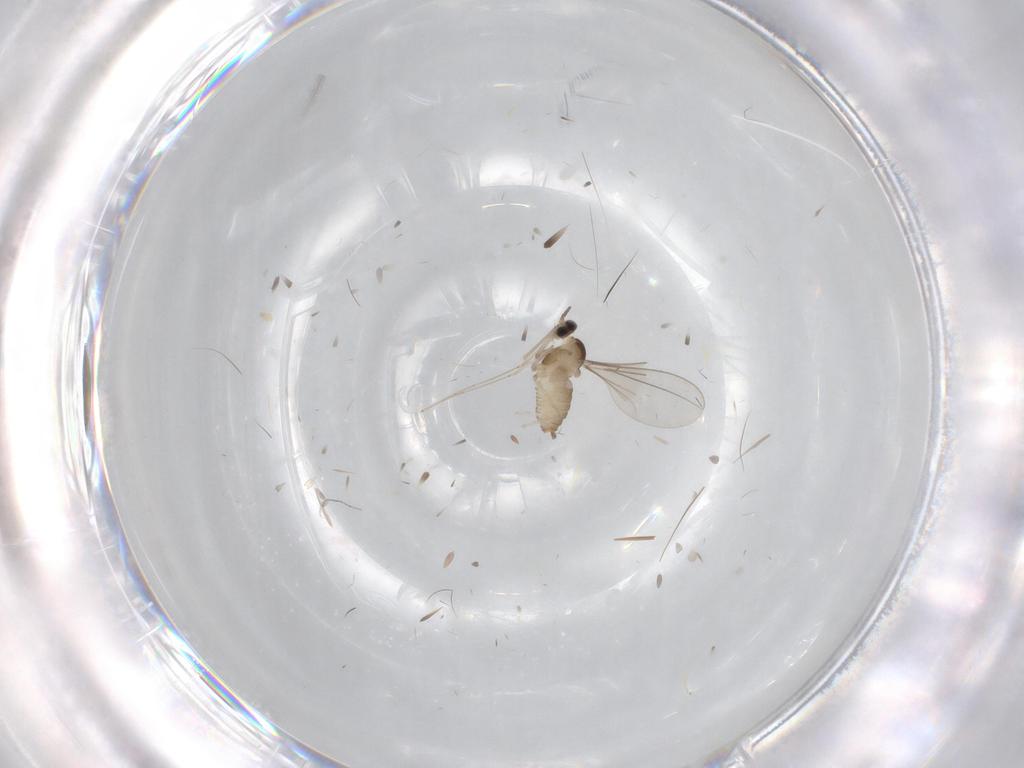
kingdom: Animalia
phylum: Arthropoda
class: Insecta
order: Diptera
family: Cecidomyiidae
